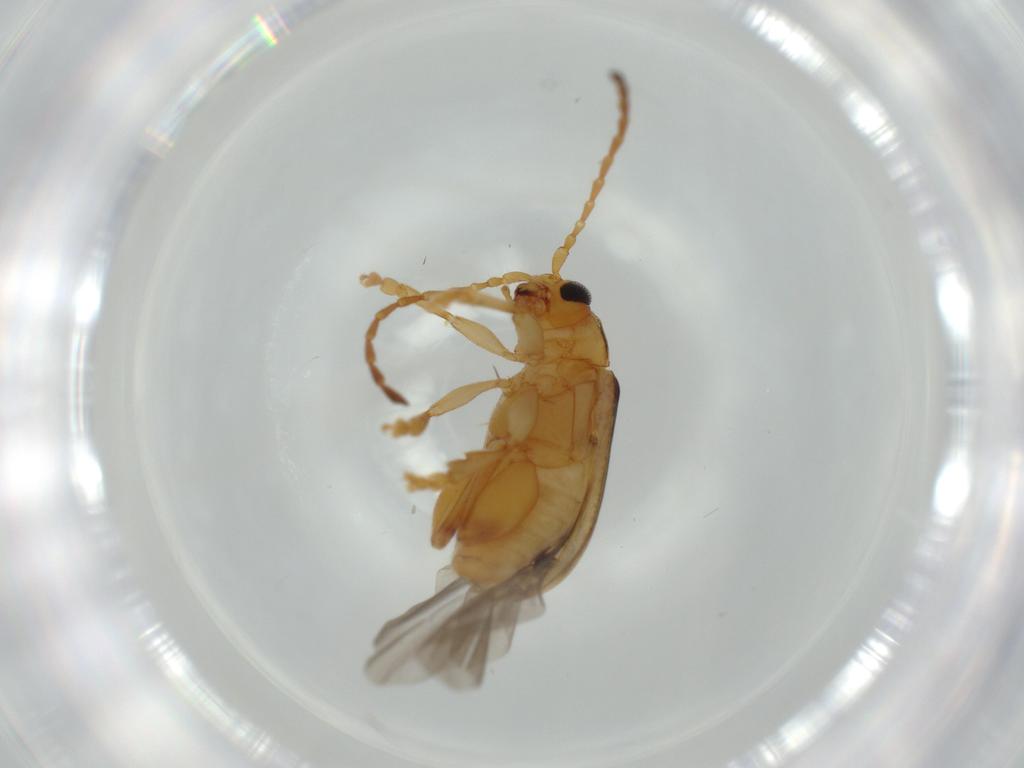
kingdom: Animalia
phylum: Arthropoda
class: Insecta
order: Coleoptera
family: Chrysomelidae
